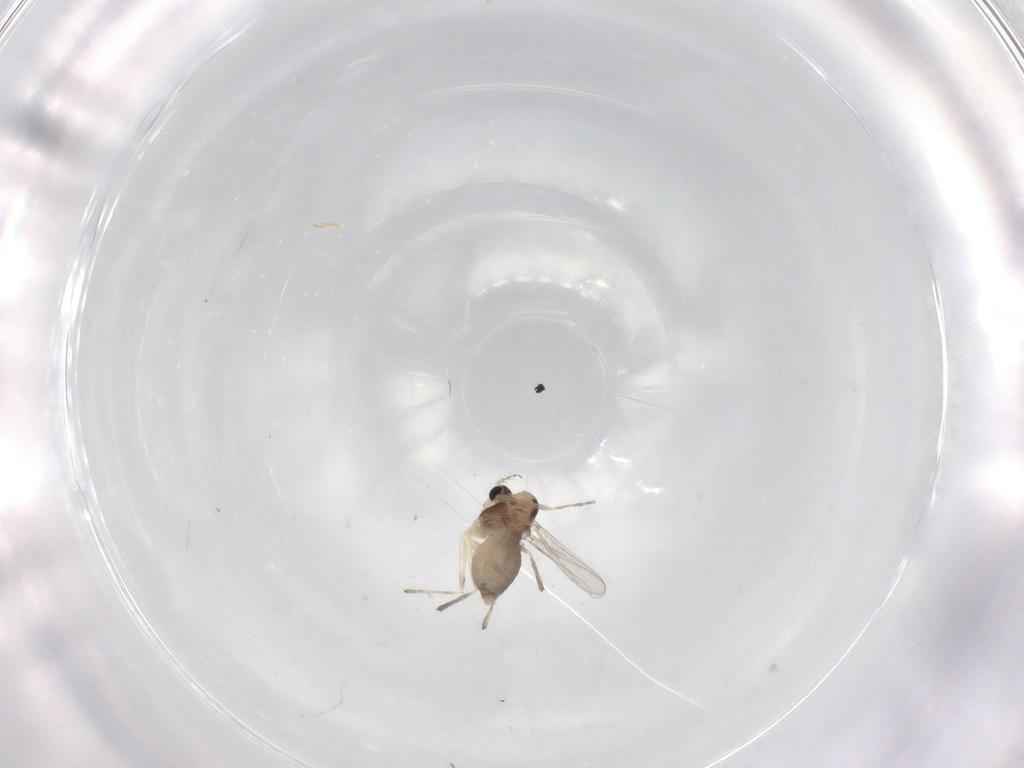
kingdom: Animalia
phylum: Arthropoda
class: Insecta
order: Diptera
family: Chironomidae
